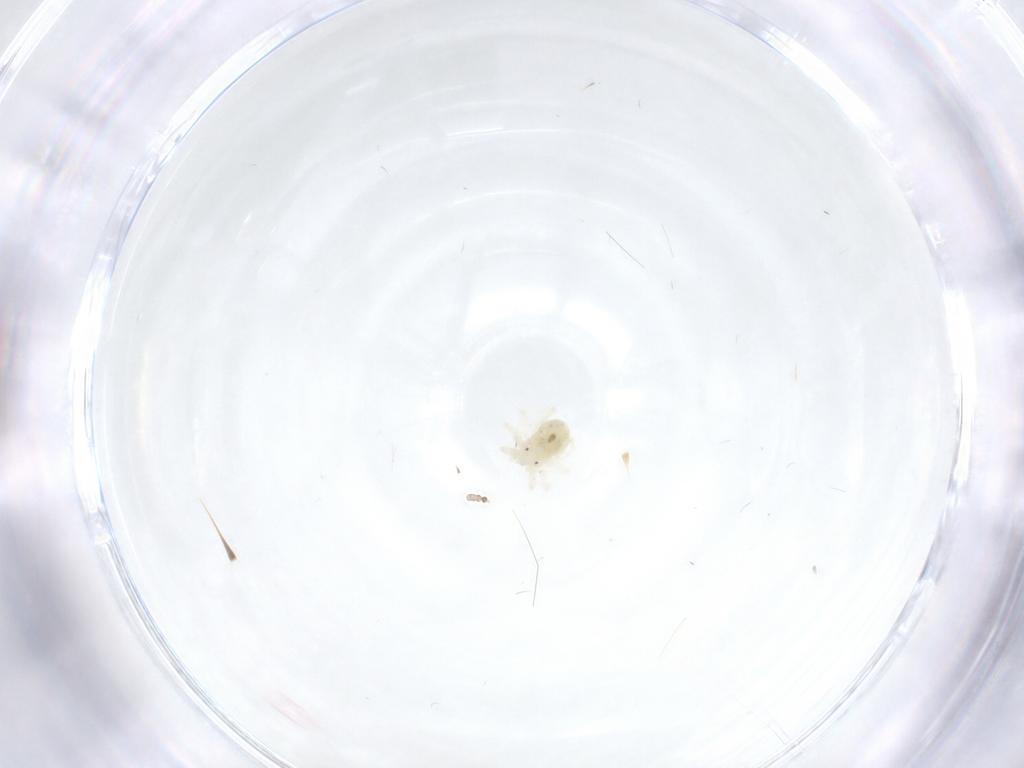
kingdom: Animalia
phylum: Arthropoda
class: Arachnida
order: Trombidiformes
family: Anystidae
